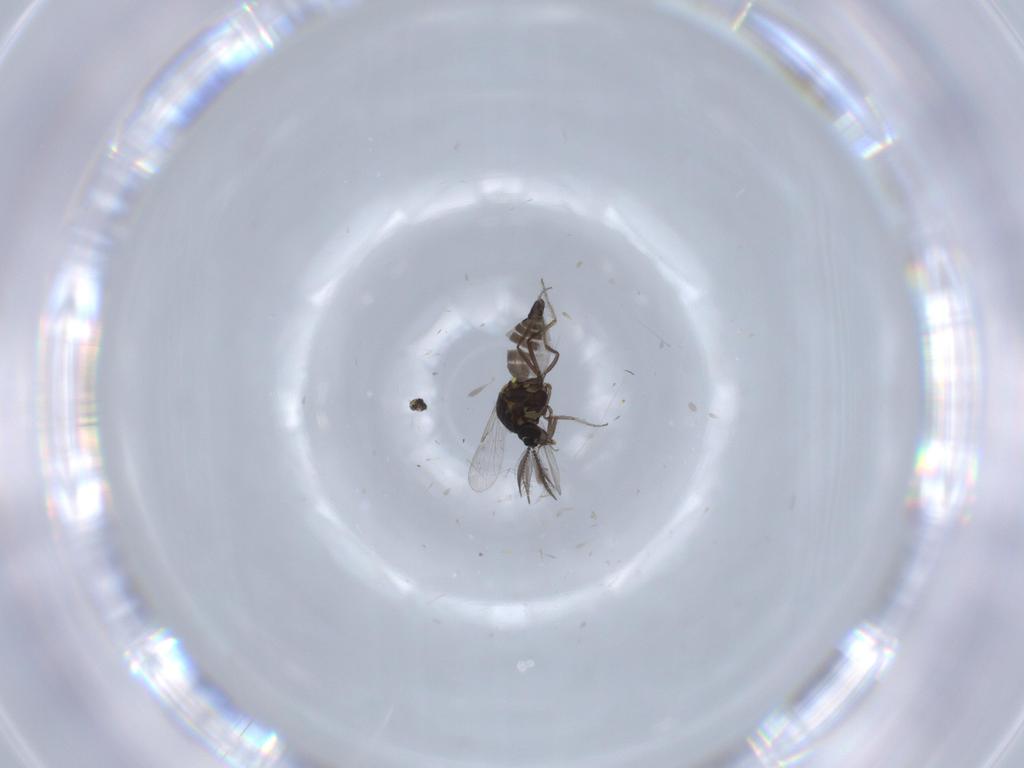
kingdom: Animalia
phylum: Arthropoda
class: Insecta
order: Diptera
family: Ceratopogonidae
